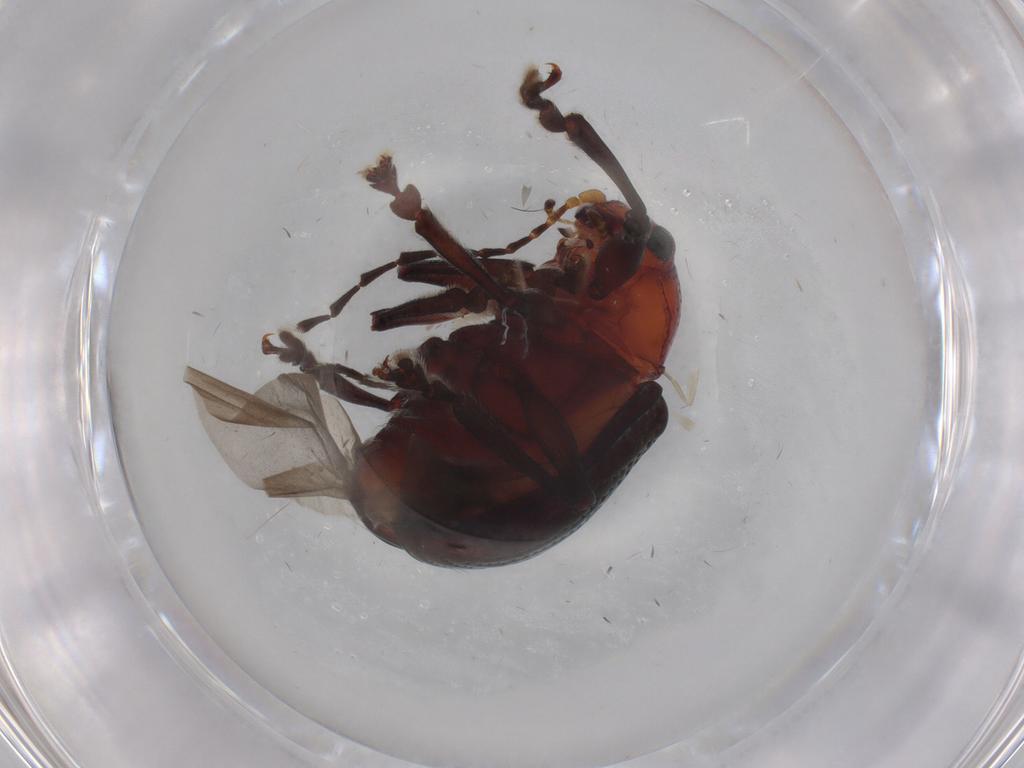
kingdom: Animalia
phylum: Arthropoda
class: Insecta
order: Coleoptera
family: Chrysomelidae
